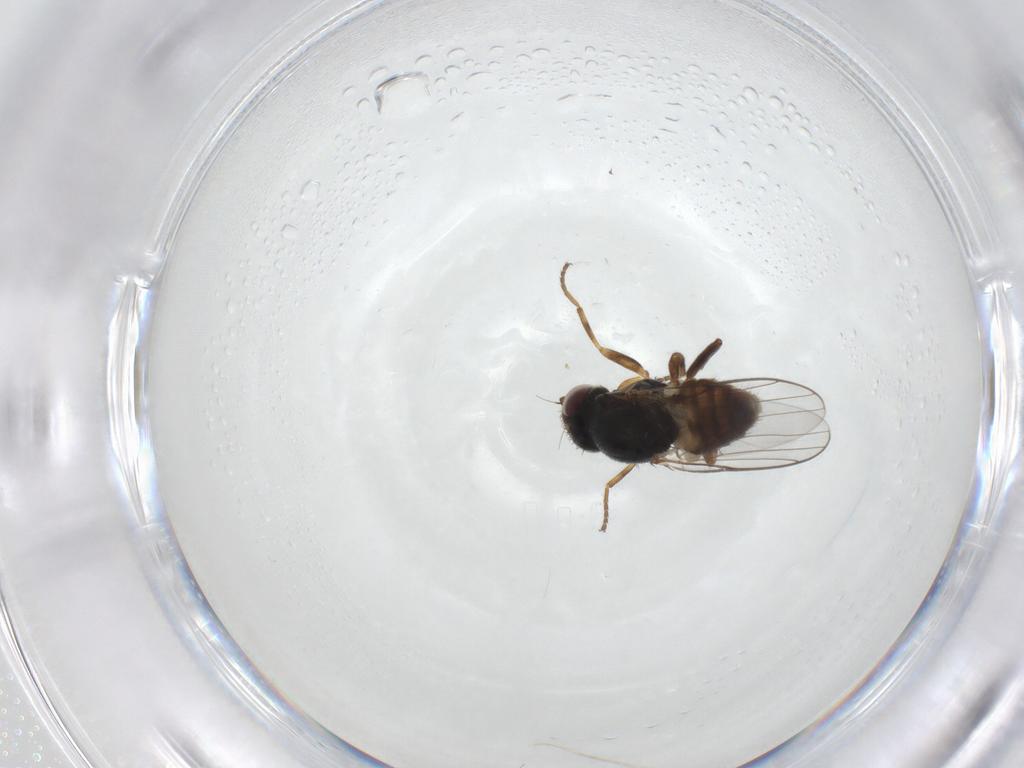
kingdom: Animalia
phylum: Arthropoda
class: Insecta
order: Diptera
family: Chloropidae
